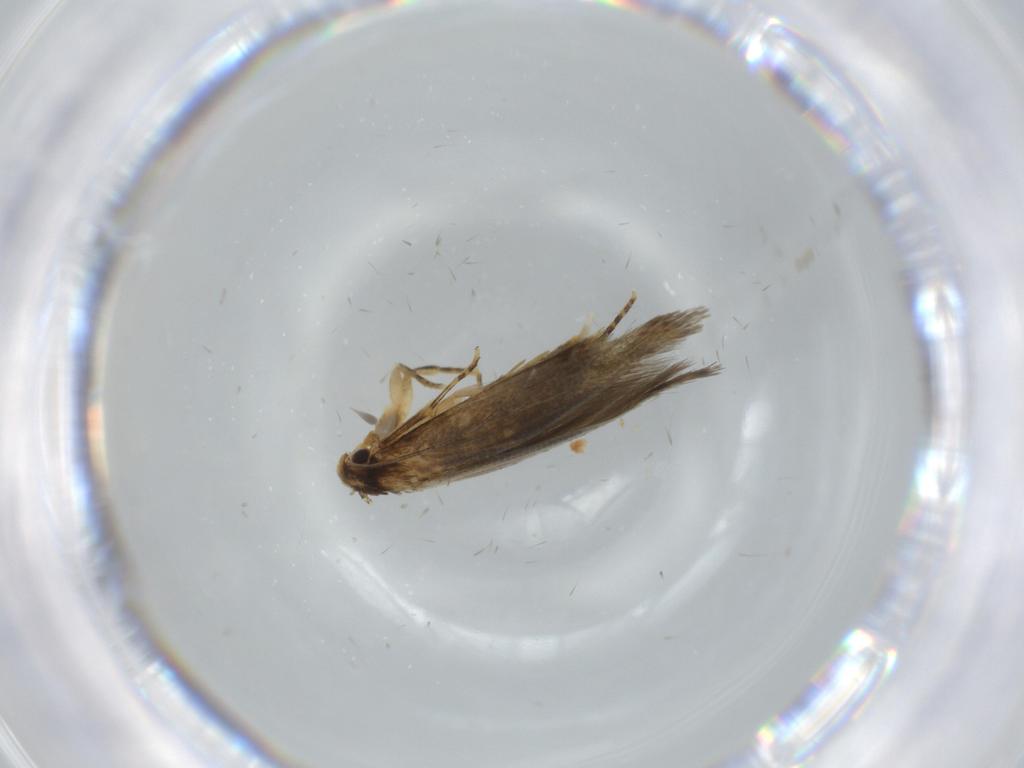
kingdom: Animalia
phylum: Arthropoda
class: Insecta
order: Lepidoptera
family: Tineidae
